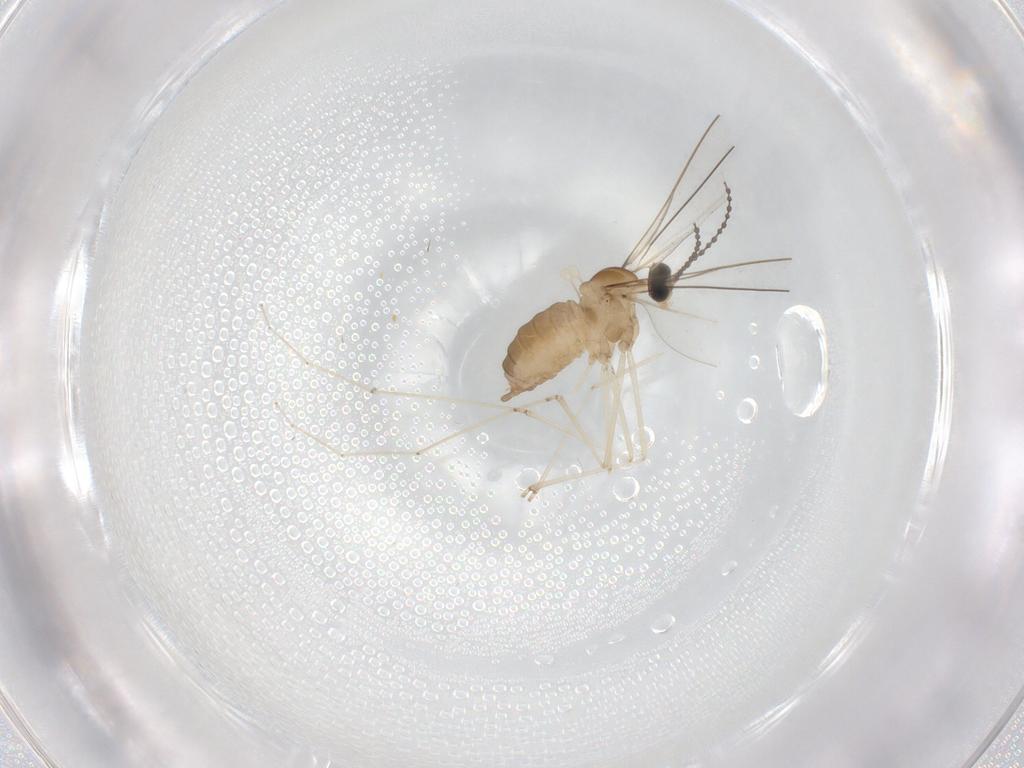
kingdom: Animalia
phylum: Arthropoda
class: Insecta
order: Diptera
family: Cecidomyiidae
